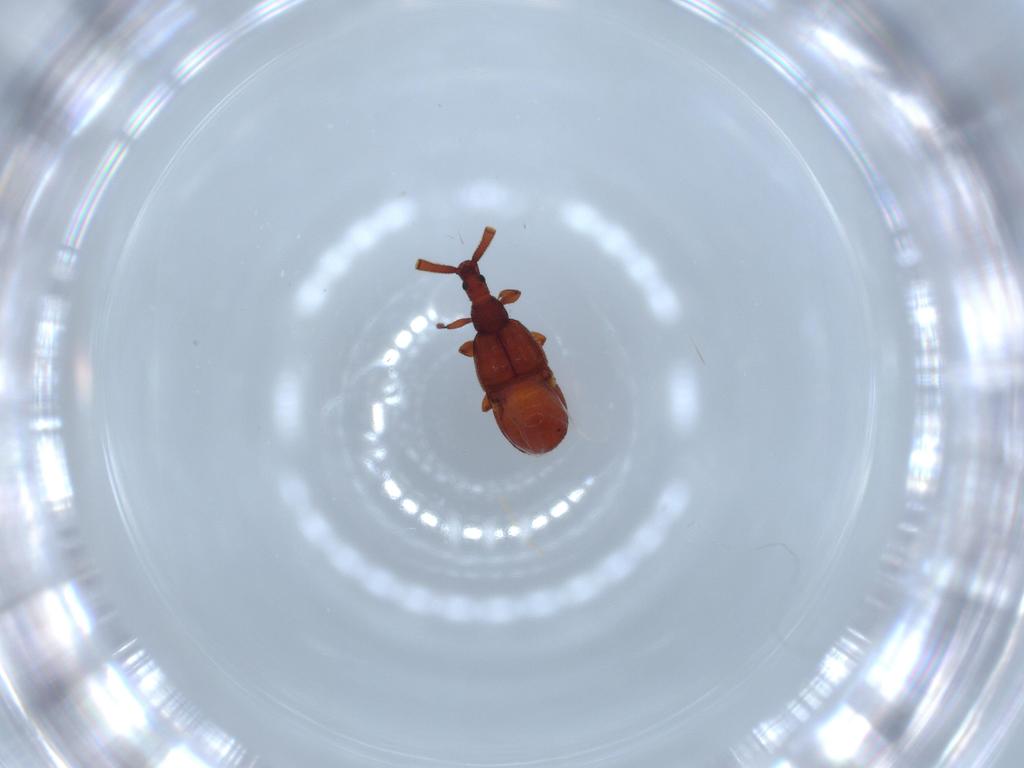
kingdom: Animalia
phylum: Arthropoda
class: Insecta
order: Coleoptera
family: Staphylinidae
